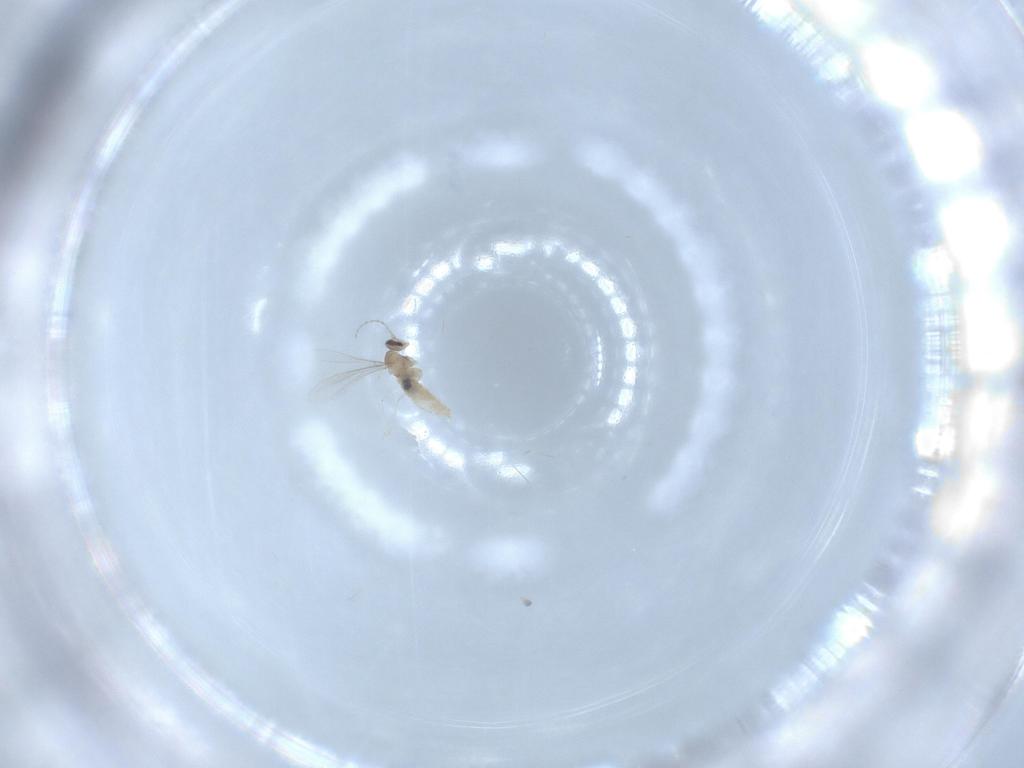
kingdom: Animalia
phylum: Arthropoda
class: Insecta
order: Diptera
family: Cecidomyiidae
